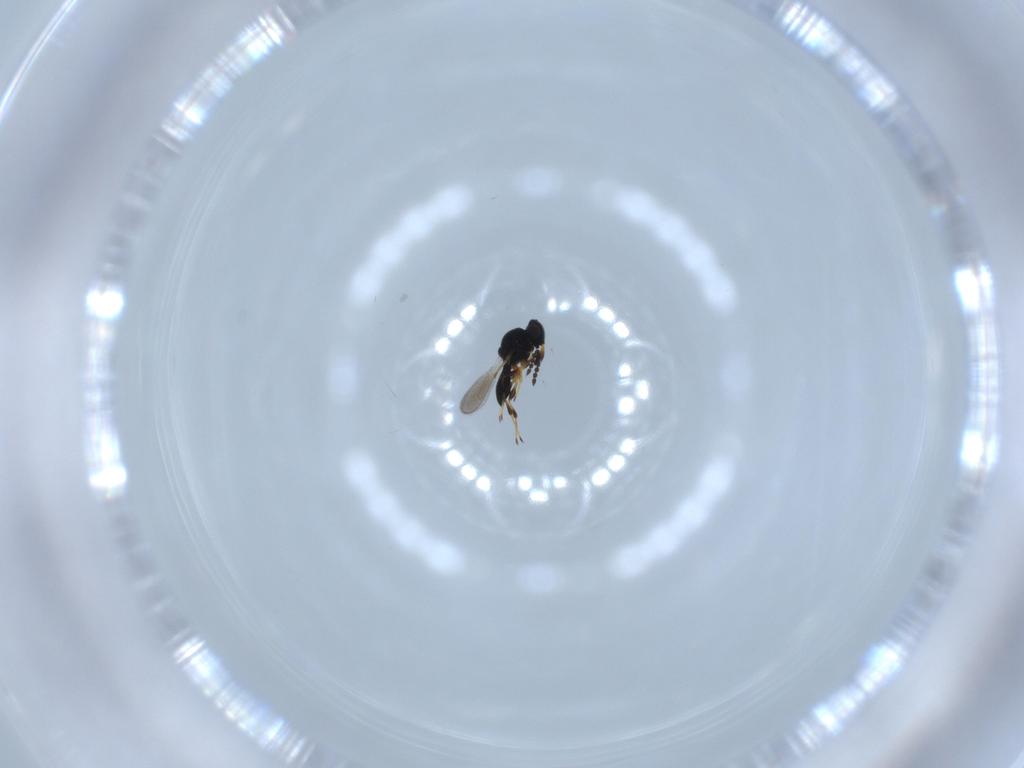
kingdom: Animalia
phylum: Arthropoda
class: Insecta
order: Hymenoptera
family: Platygastridae
